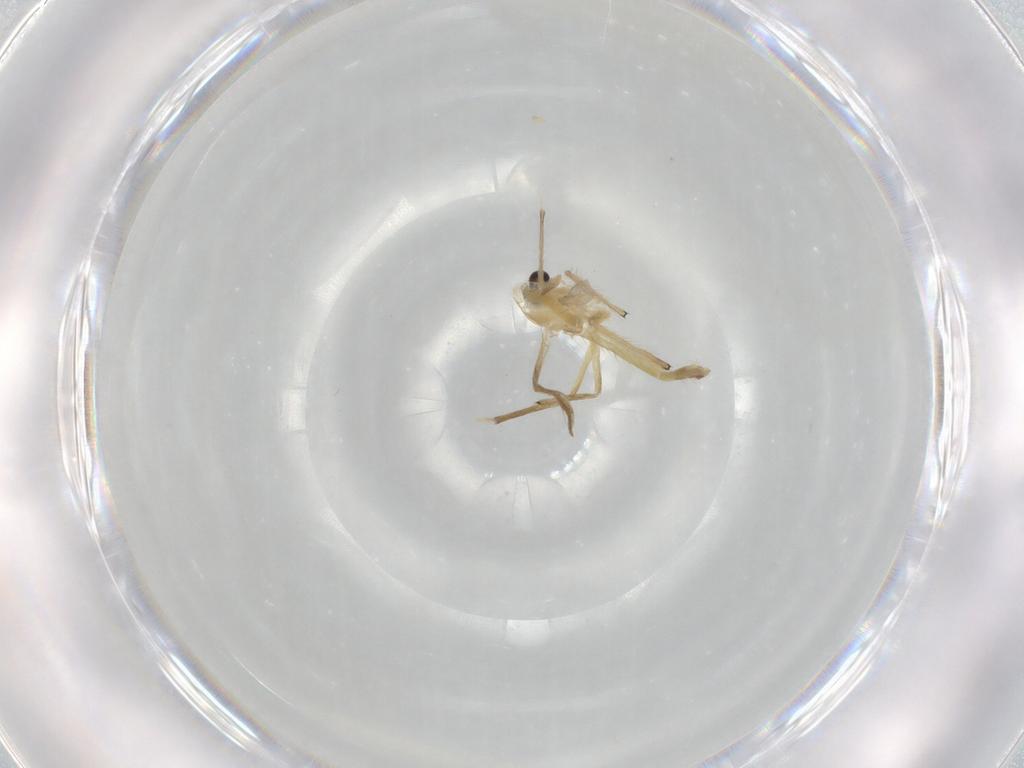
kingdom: Animalia
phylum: Arthropoda
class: Insecta
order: Diptera
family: Chironomidae
